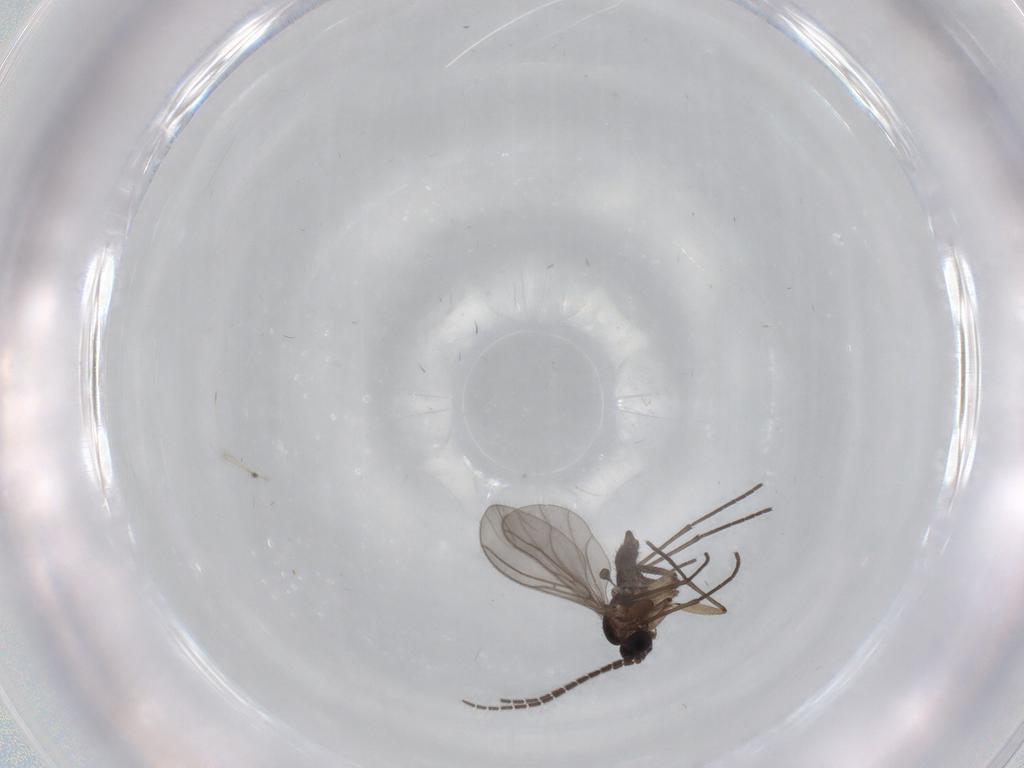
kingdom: Animalia
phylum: Arthropoda
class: Insecta
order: Diptera
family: Sciaridae
